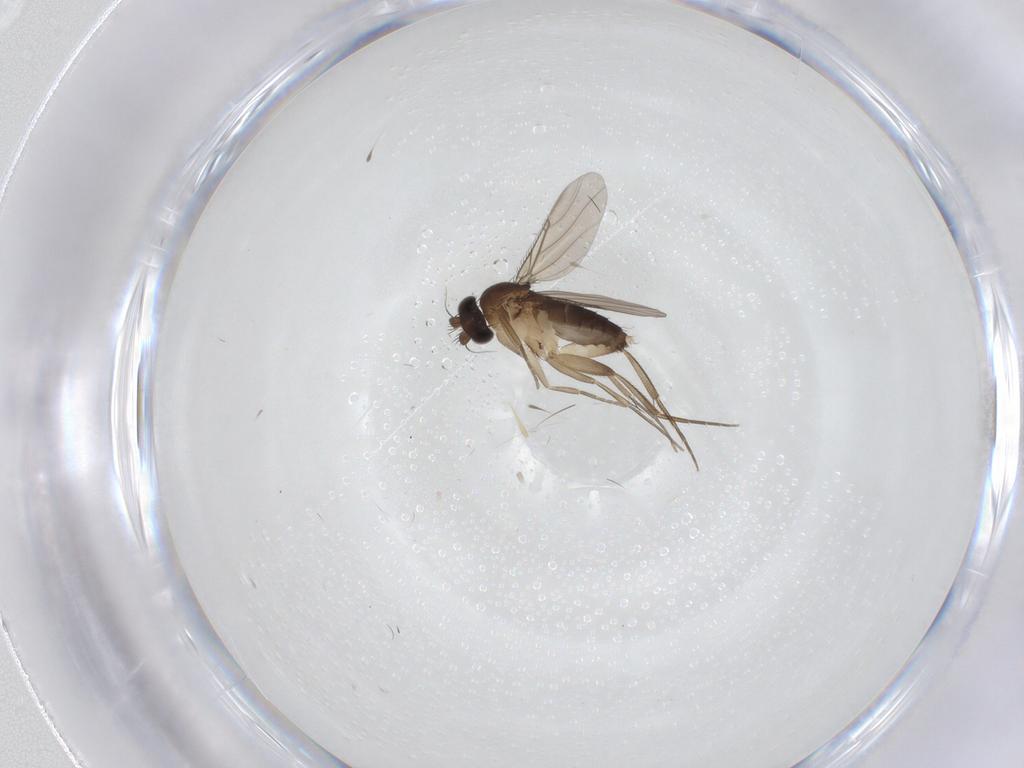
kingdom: Animalia
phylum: Arthropoda
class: Insecta
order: Diptera
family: Phoridae
